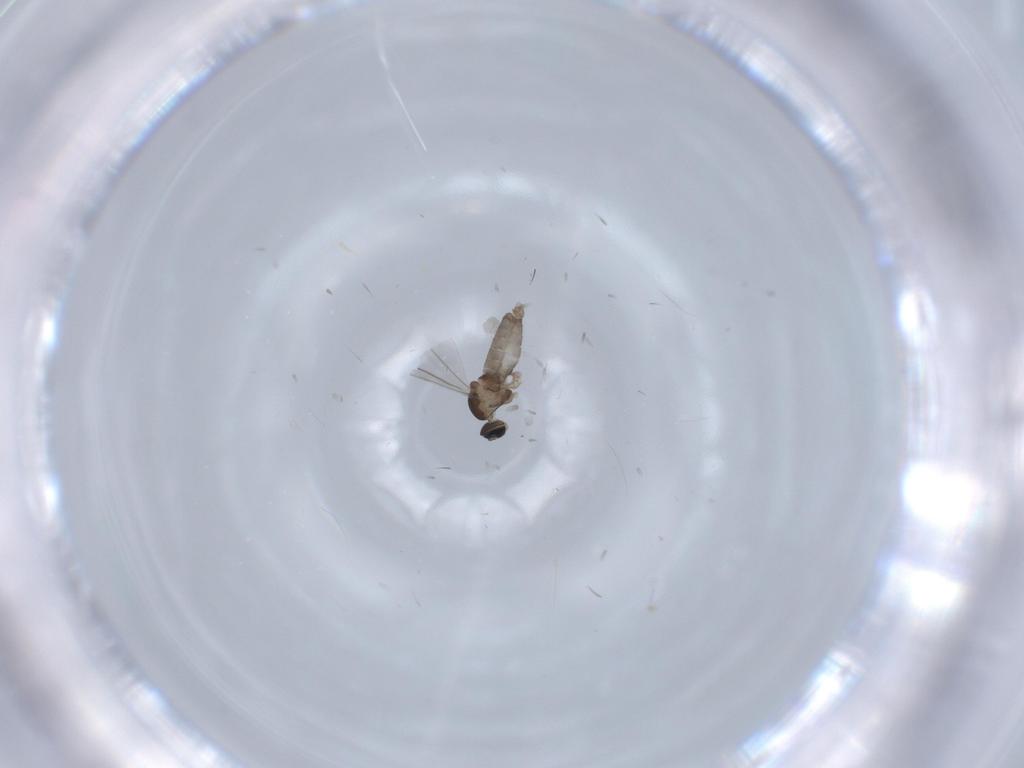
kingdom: Animalia
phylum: Arthropoda
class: Insecta
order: Diptera
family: Cecidomyiidae
